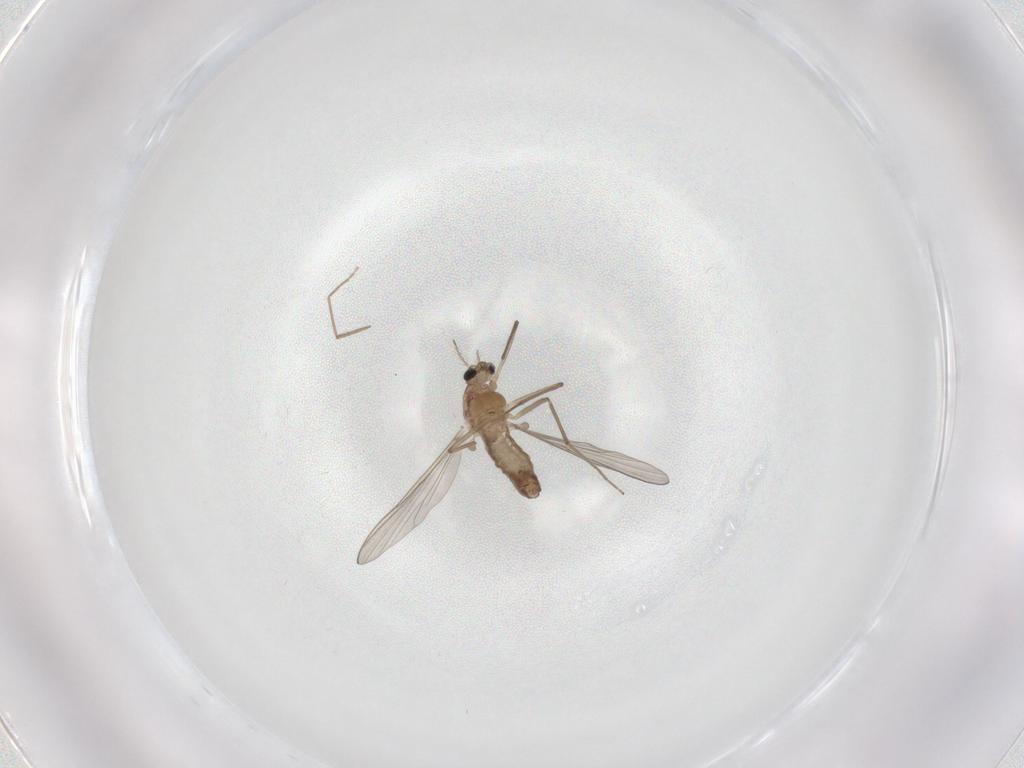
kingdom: Animalia
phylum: Arthropoda
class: Insecta
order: Diptera
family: Chironomidae
